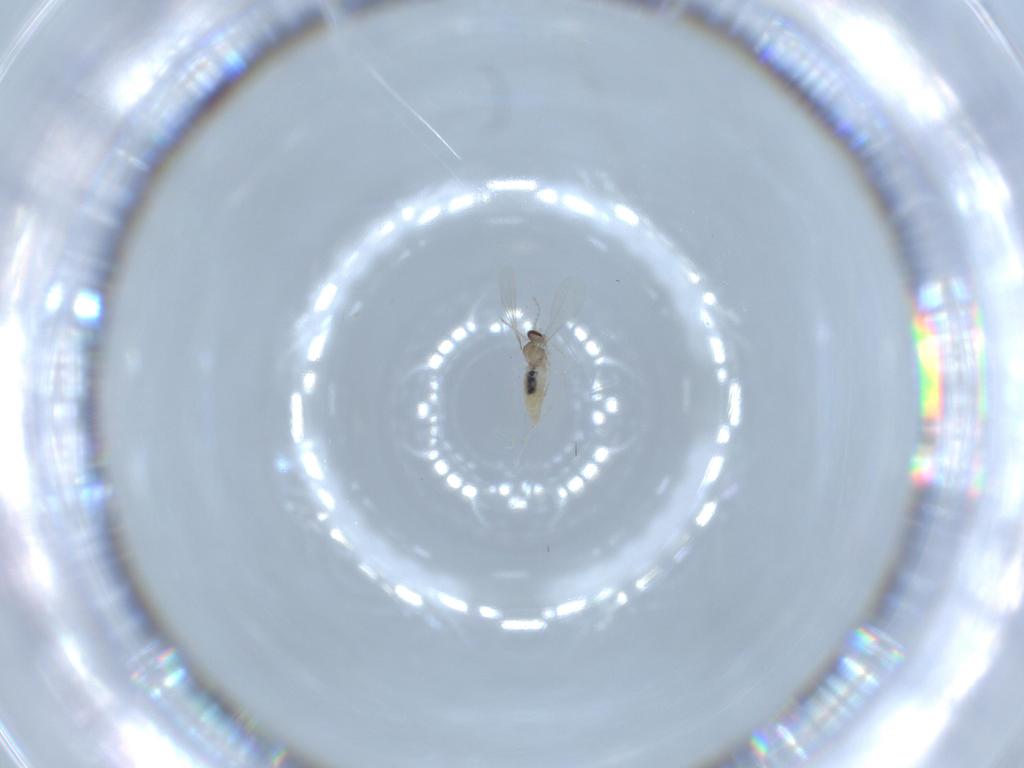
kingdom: Animalia
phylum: Arthropoda
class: Insecta
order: Diptera
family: Cecidomyiidae
